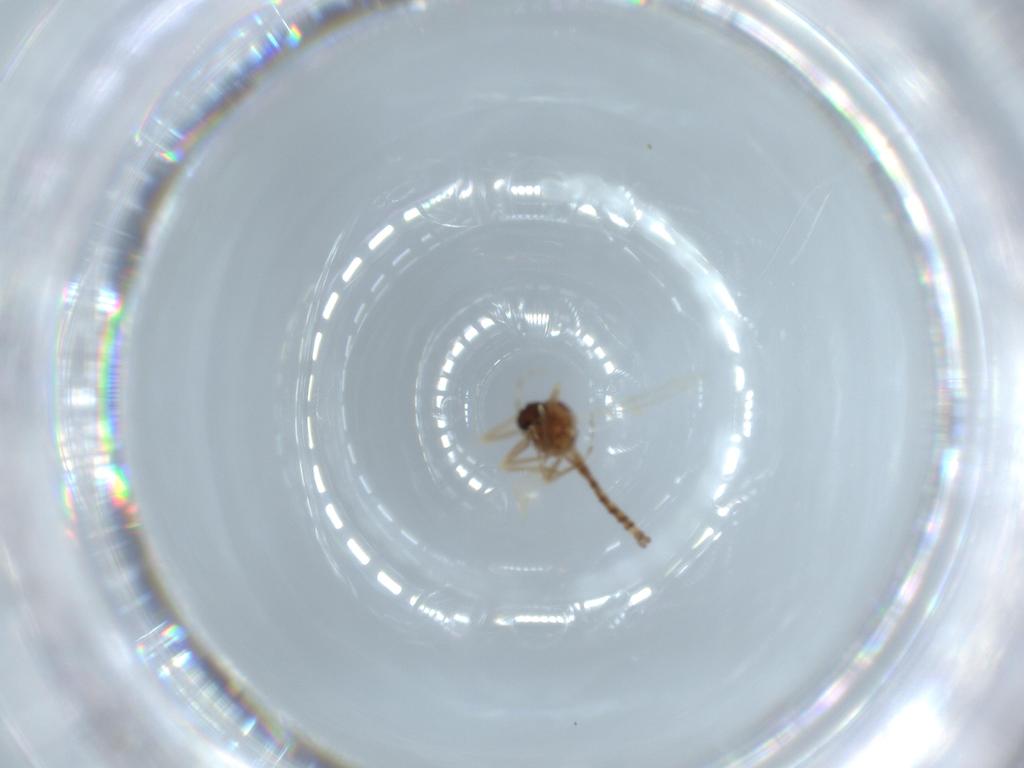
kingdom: Animalia
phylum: Arthropoda
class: Insecta
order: Diptera
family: Ceratopogonidae
